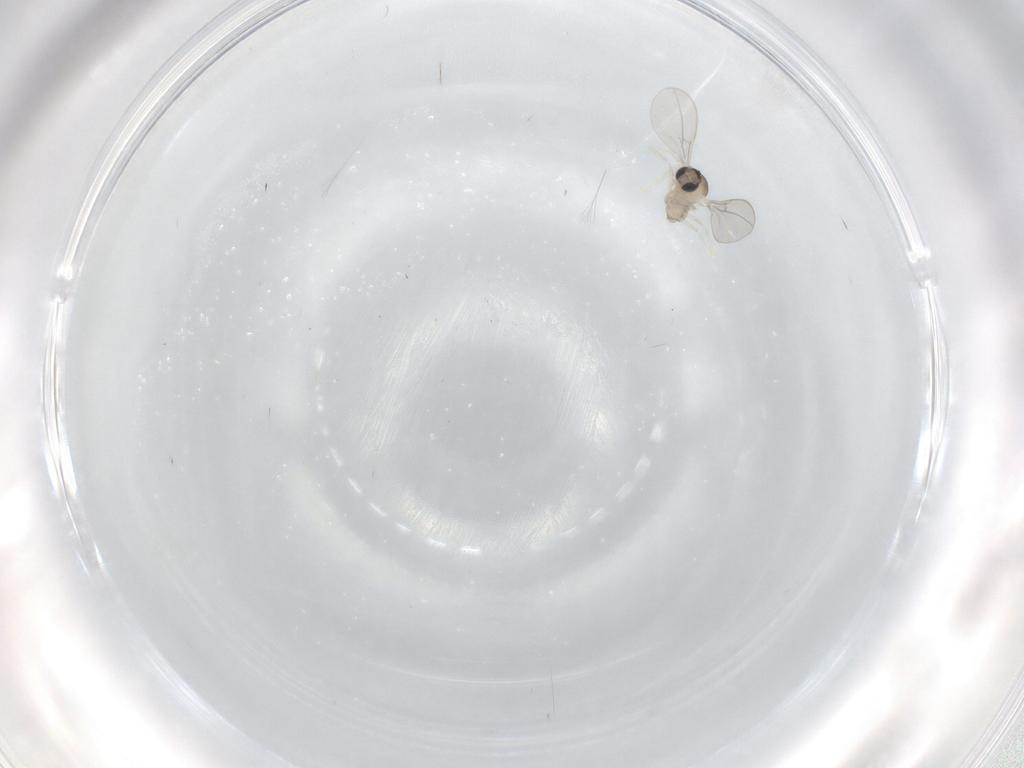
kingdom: Animalia
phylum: Arthropoda
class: Insecta
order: Diptera
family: Cecidomyiidae
